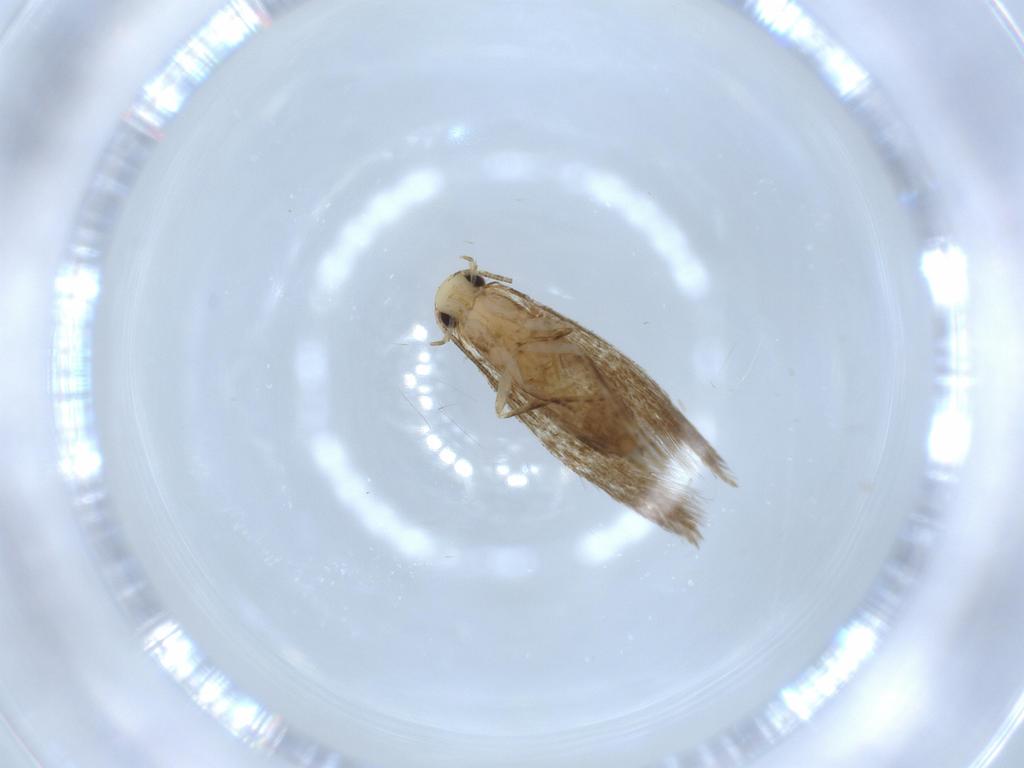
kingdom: Animalia
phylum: Arthropoda
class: Insecta
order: Lepidoptera
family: Tineidae
